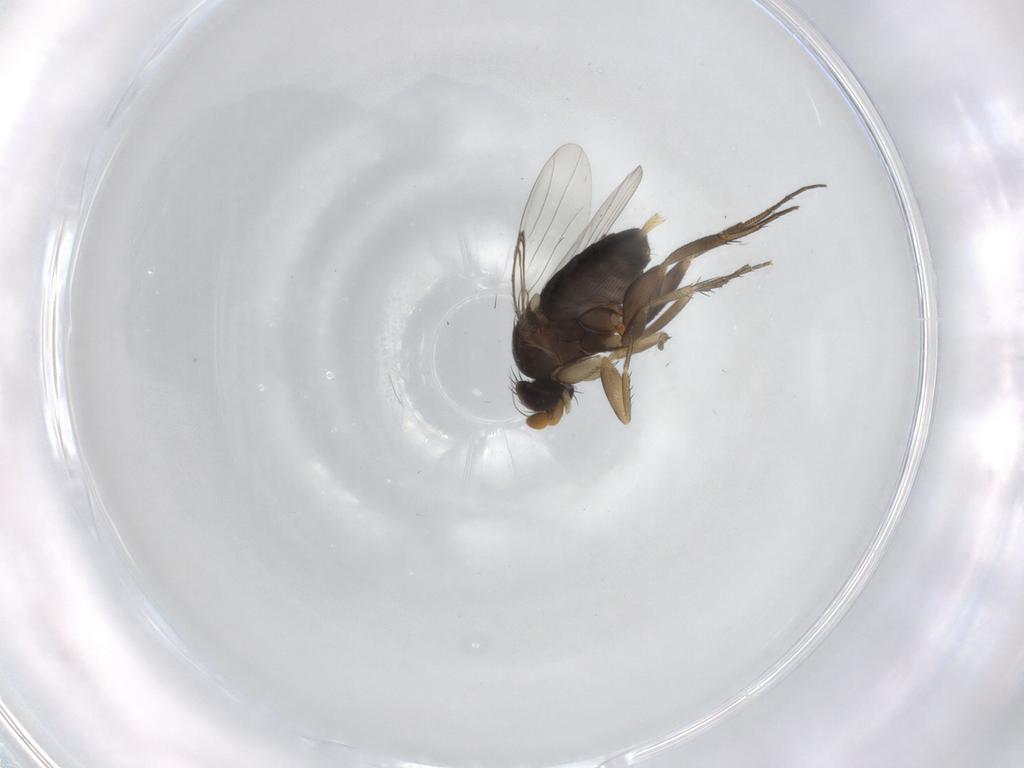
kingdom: Animalia
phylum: Arthropoda
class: Insecta
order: Diptera
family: Phoridae
